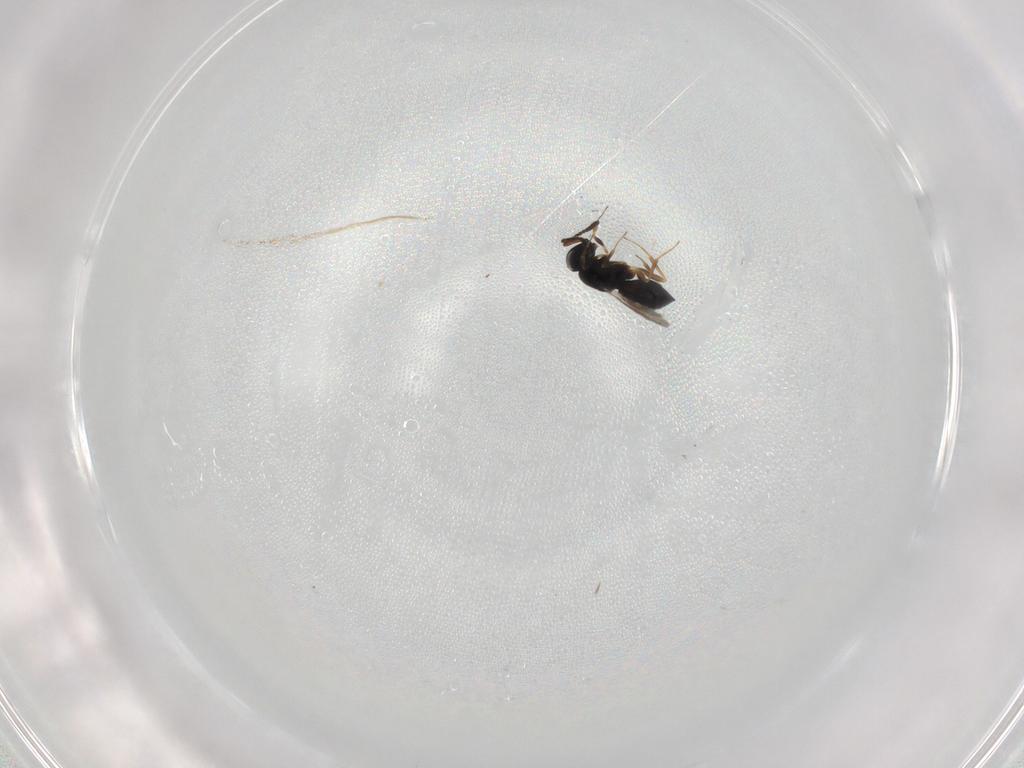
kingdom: Animalia
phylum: Arthropoda
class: Insecta
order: Hymenoptera
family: Scelionidae
